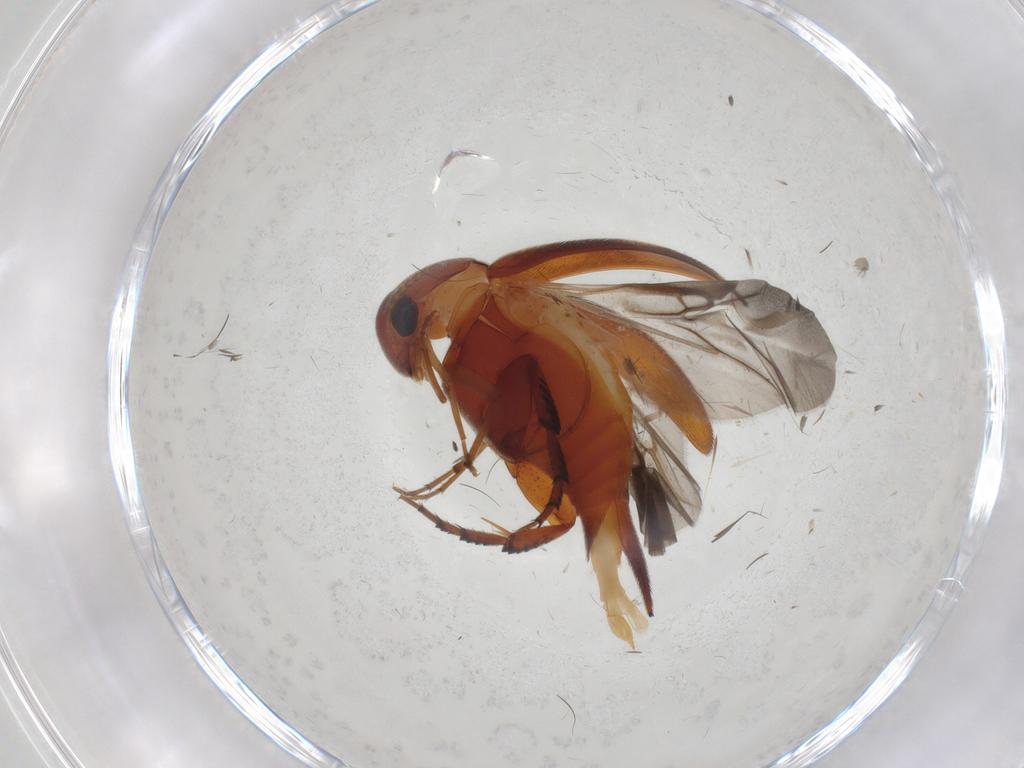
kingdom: Animalia
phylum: Arthropoda
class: Insecta
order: Coleoptera
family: Mordellidae
